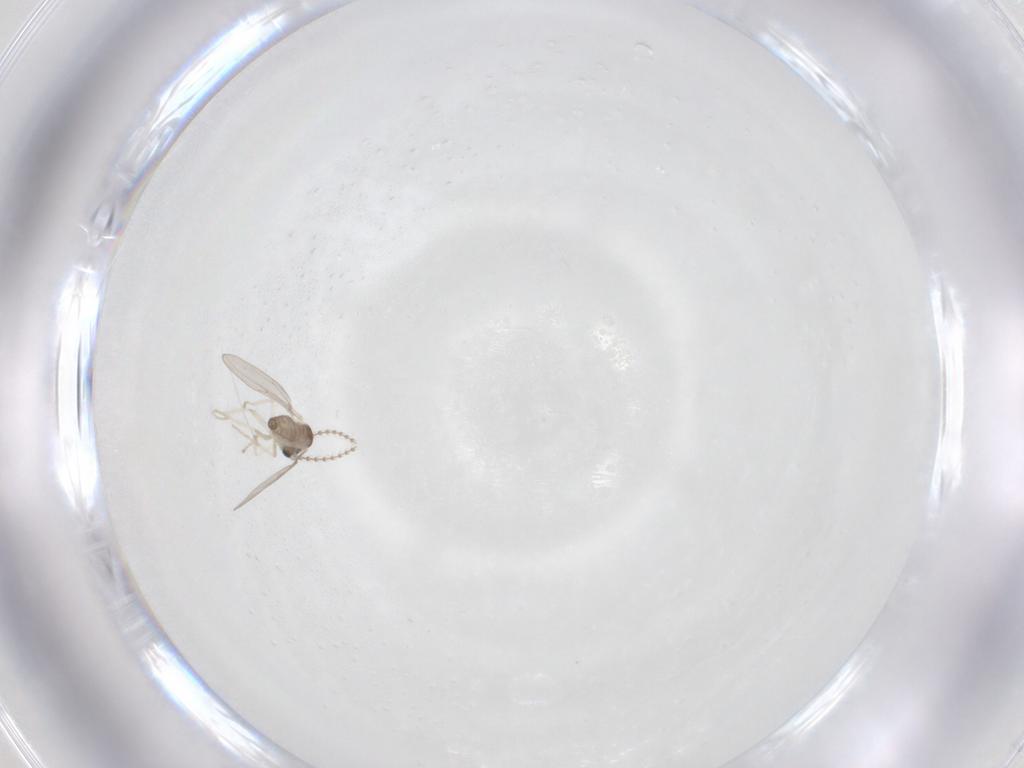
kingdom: Animalia
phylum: Arthropoda
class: Insecta
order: Diptera
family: Cecidomyiidae
